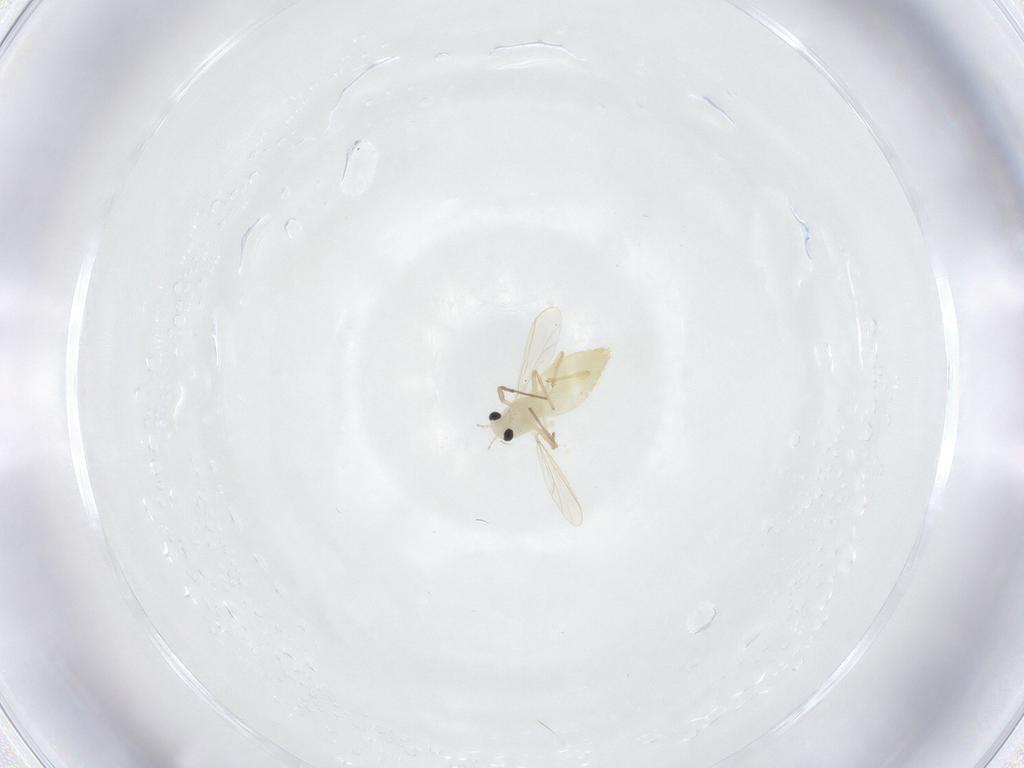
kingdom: Animalia
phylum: Arthropoda
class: Insecta
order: Diptera
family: Chironomidae
